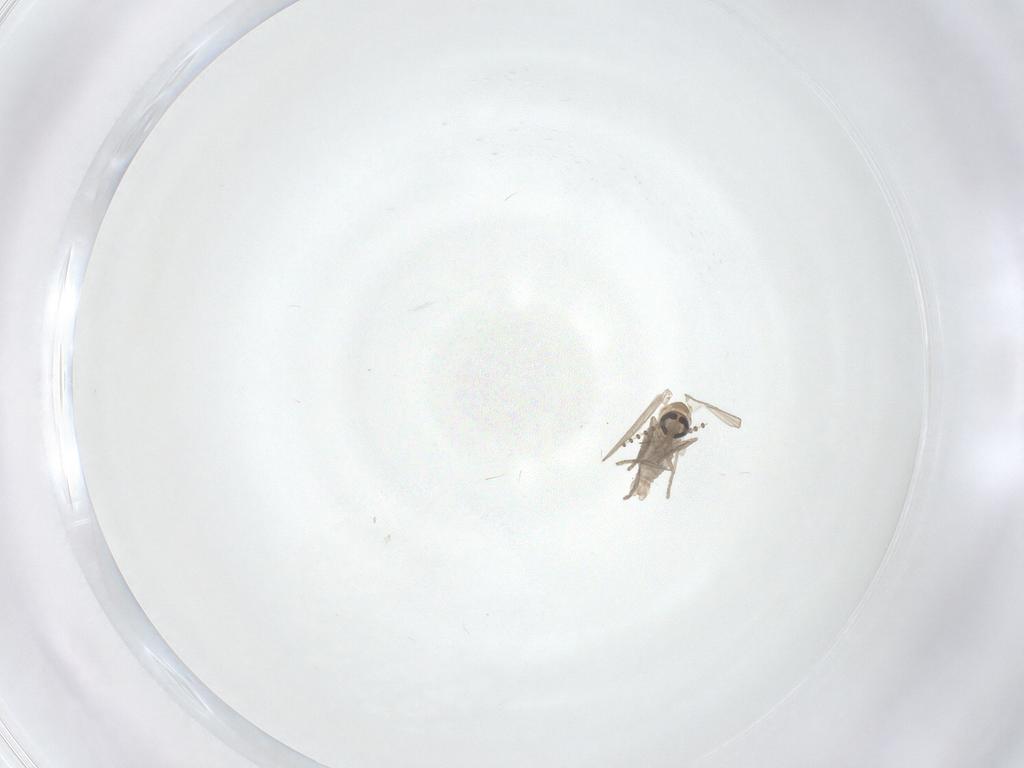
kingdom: Animalia
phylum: Arthropoda
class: Insecta
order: Diptera
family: Psychodidae
